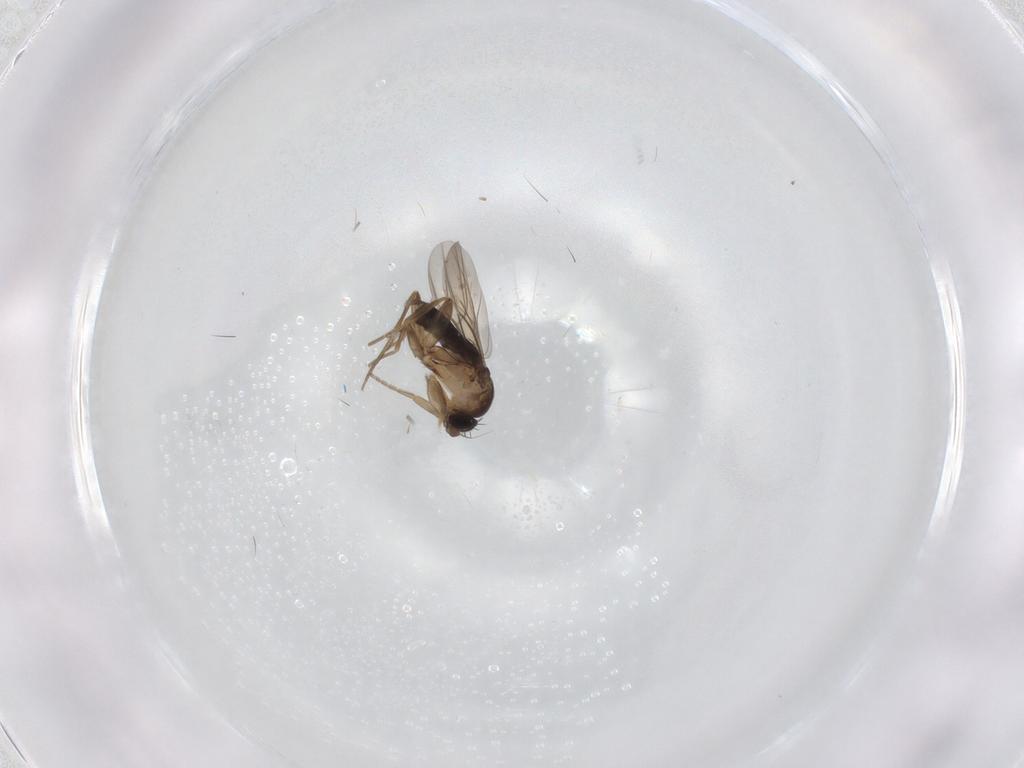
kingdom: Animalia
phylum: Arthropoda
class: Insecta
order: Diptera
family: Phoridae
